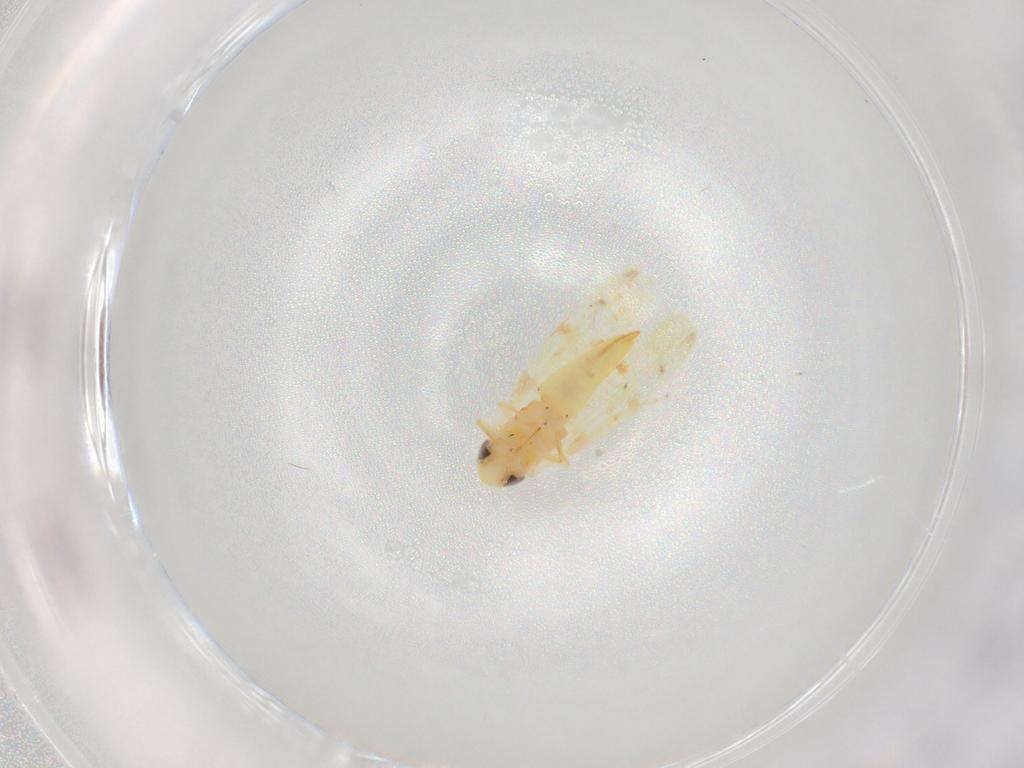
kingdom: Animalia
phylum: Arthropoda
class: Insecta
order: Hemiptera
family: Cicadellidae
